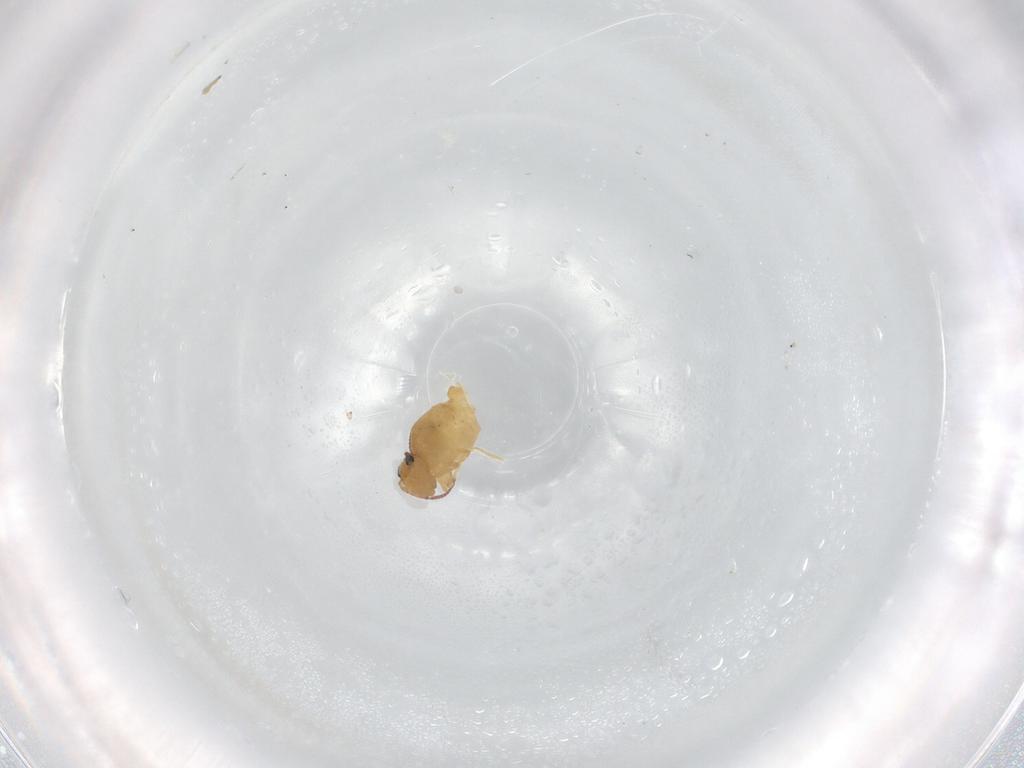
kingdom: Animalia
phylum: Arthropoda
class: Collembola
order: Symphypleona
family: Bourletiellidae
